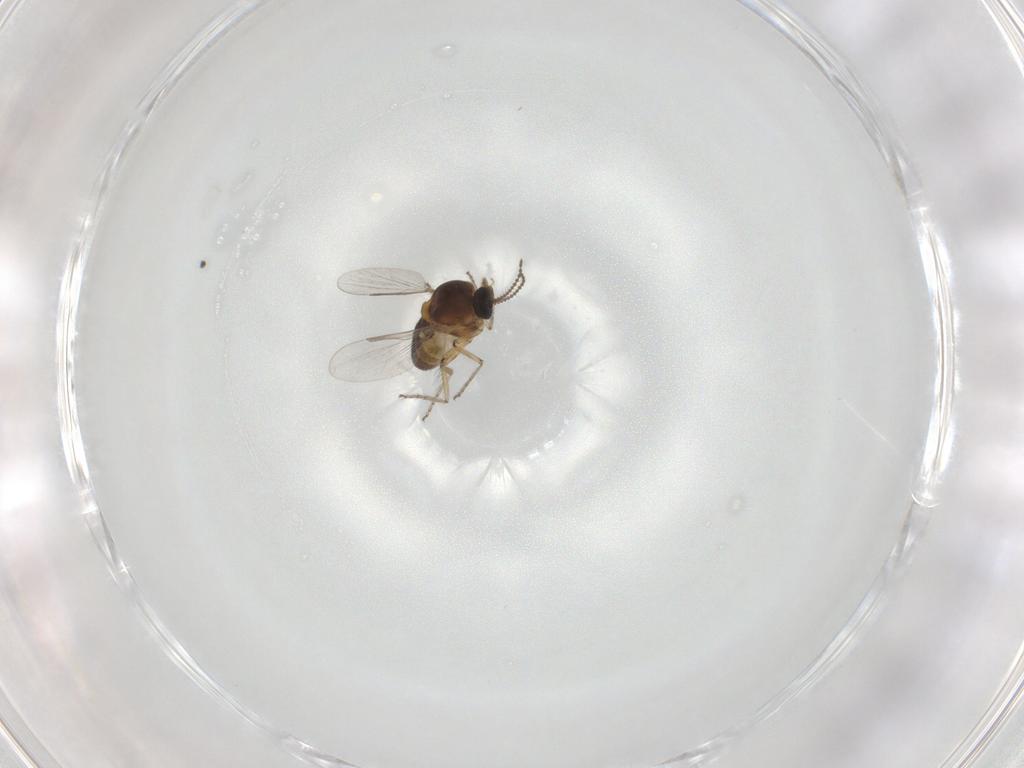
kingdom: Animalia
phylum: Arthropoda
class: Insecta
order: Diptera
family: Ceratopogonidae
